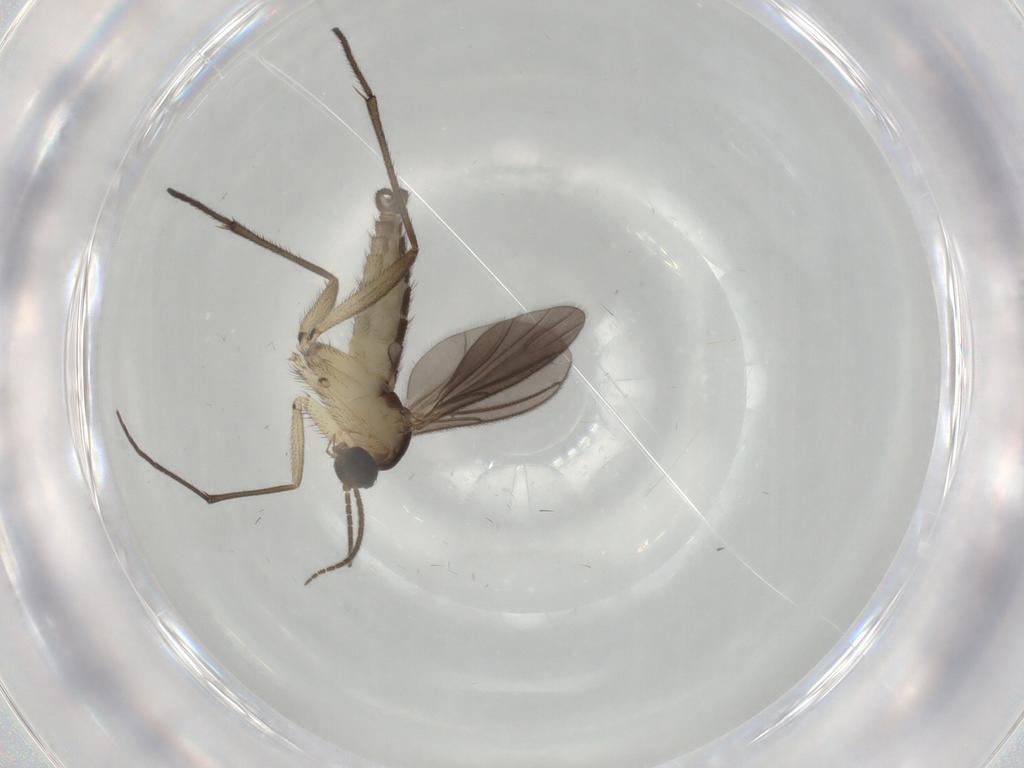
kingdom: Animalia
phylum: Arthropoda
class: Insecta
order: Diptera
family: Sciaridae
